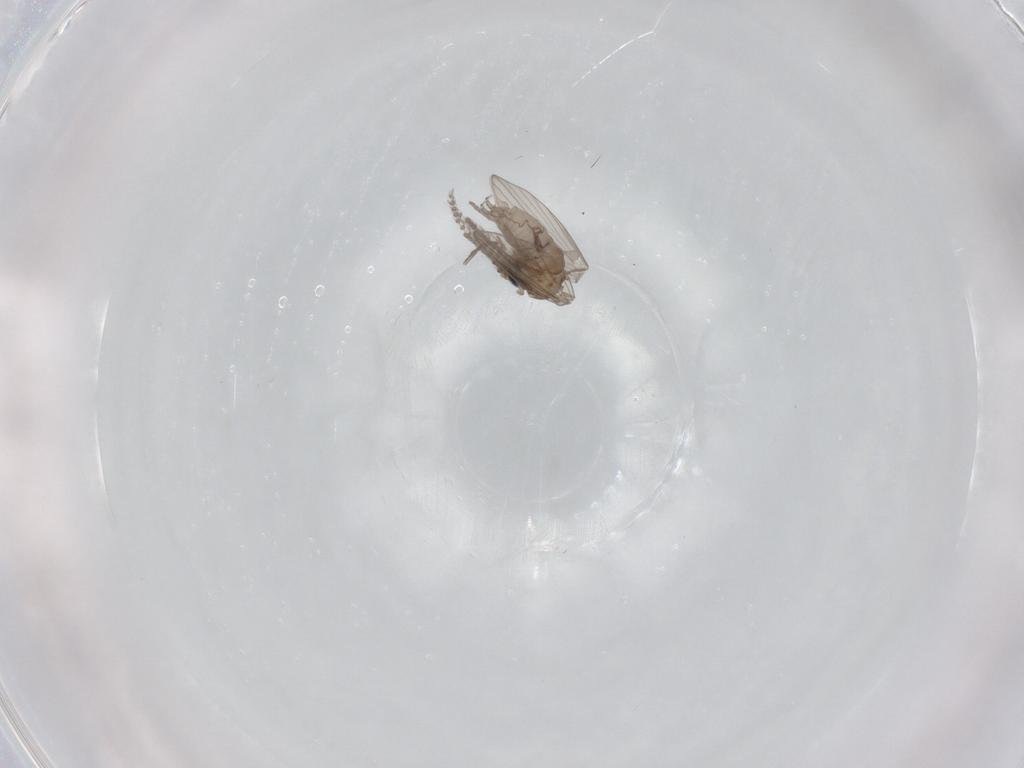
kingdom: Animalia
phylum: Arthropoda
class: Insecta
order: Diptera
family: Psychodidae
